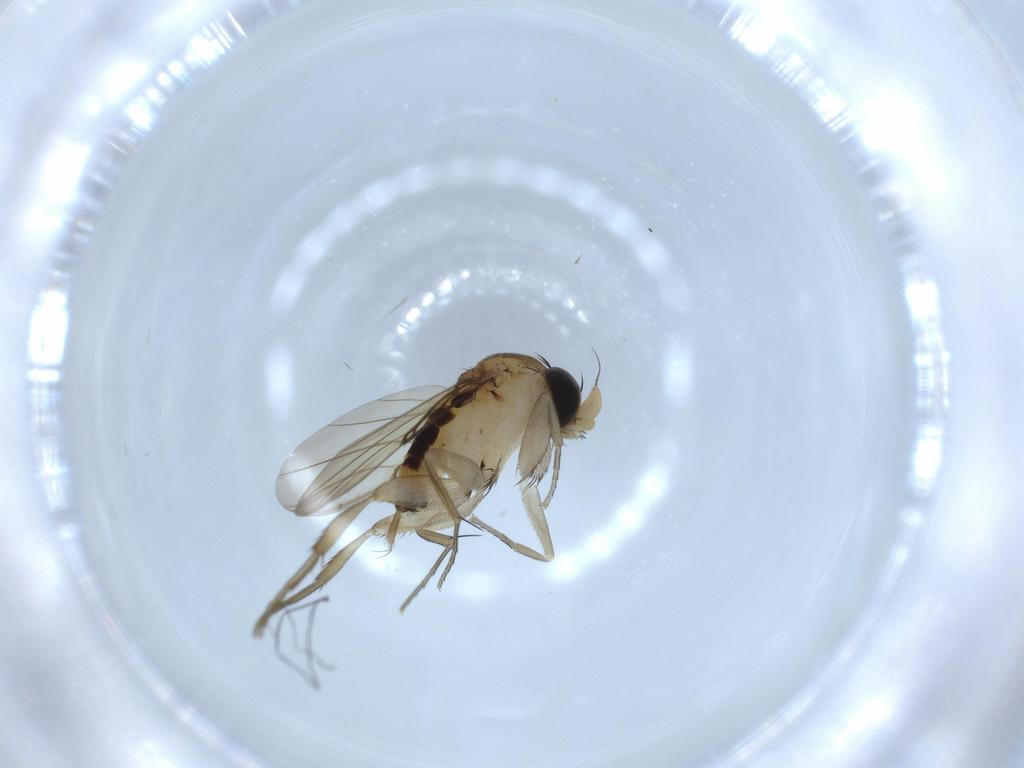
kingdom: Animalia
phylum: Arthropoda
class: Insecta
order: Diptera
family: Phoridae
